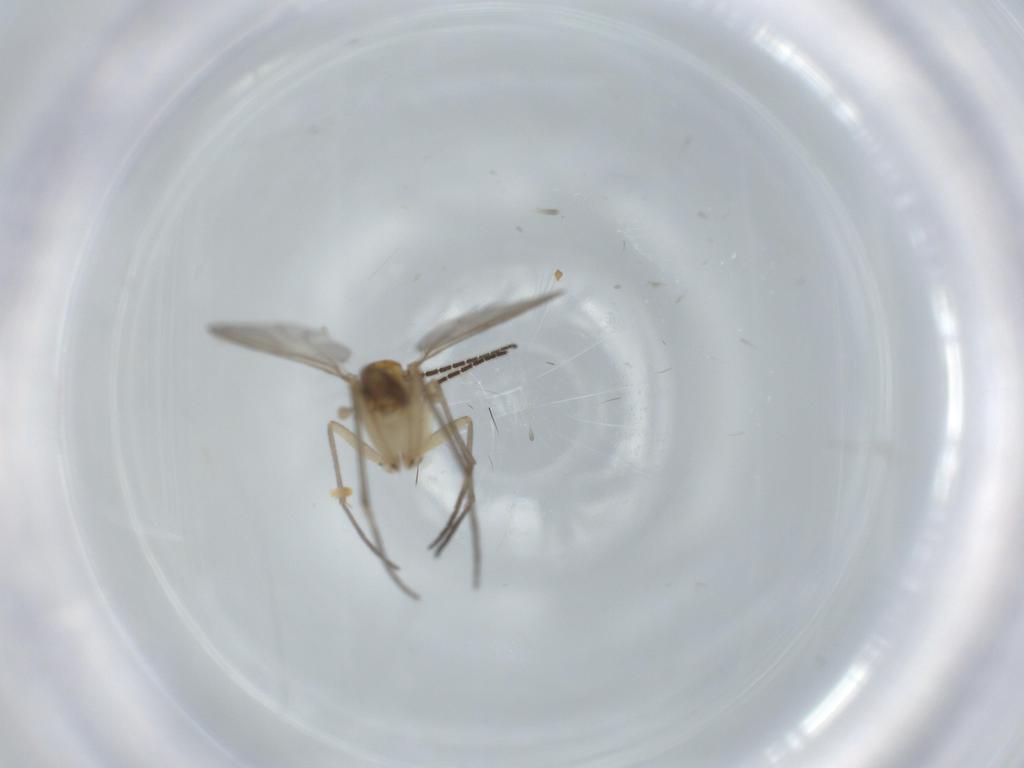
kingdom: Animalia
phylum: Arthropoda
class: Insecta
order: Diptera
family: Sciaridae
